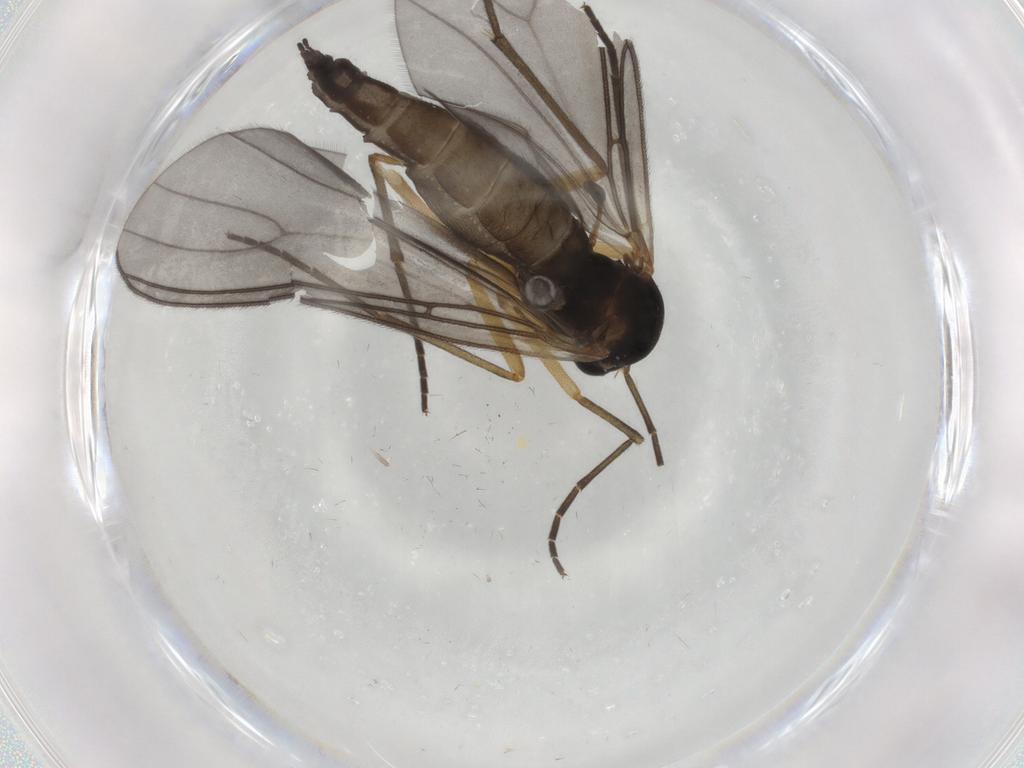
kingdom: Animalia
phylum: Arthropoda
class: Insecta
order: Diptera
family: Sciaridae
